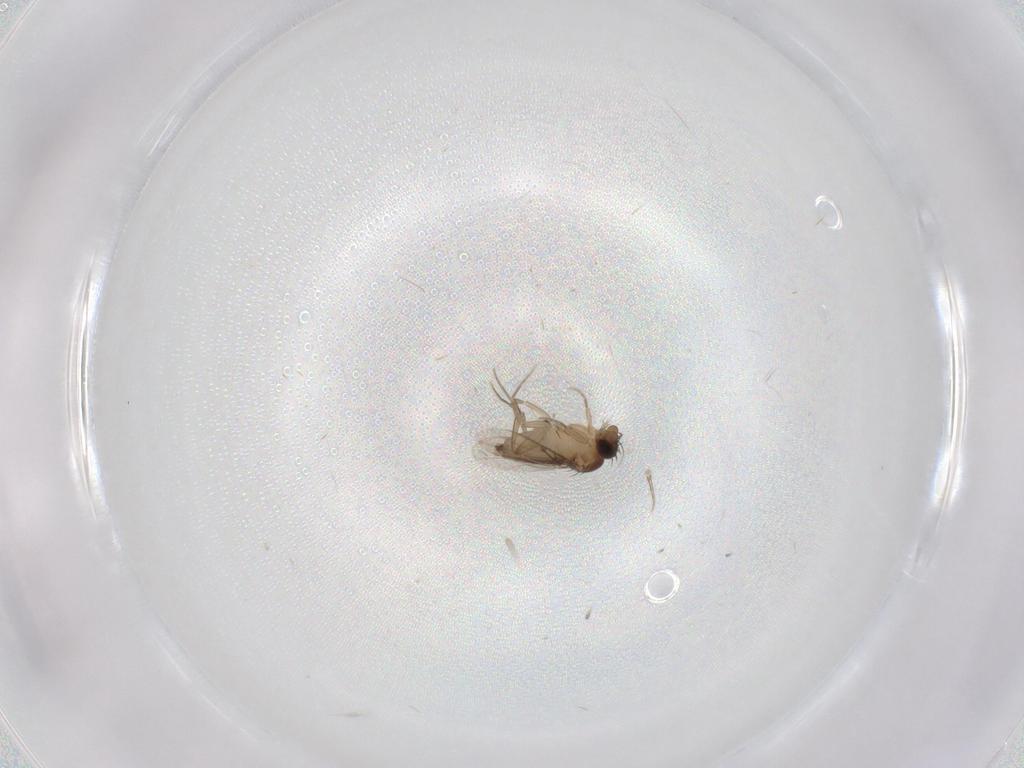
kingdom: Animalia
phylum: Arthropoda
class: Insecta
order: Diptera
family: Phoridae
